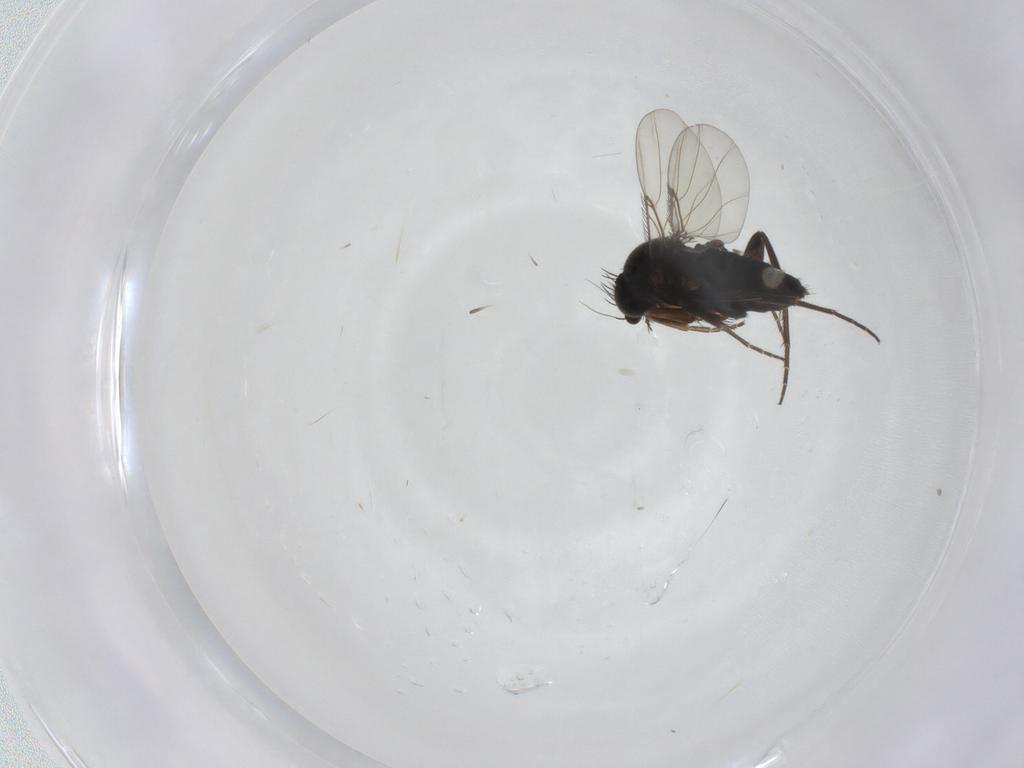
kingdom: Animalia
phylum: Arthropoda
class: Insecta
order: Diptera
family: Phoridae
